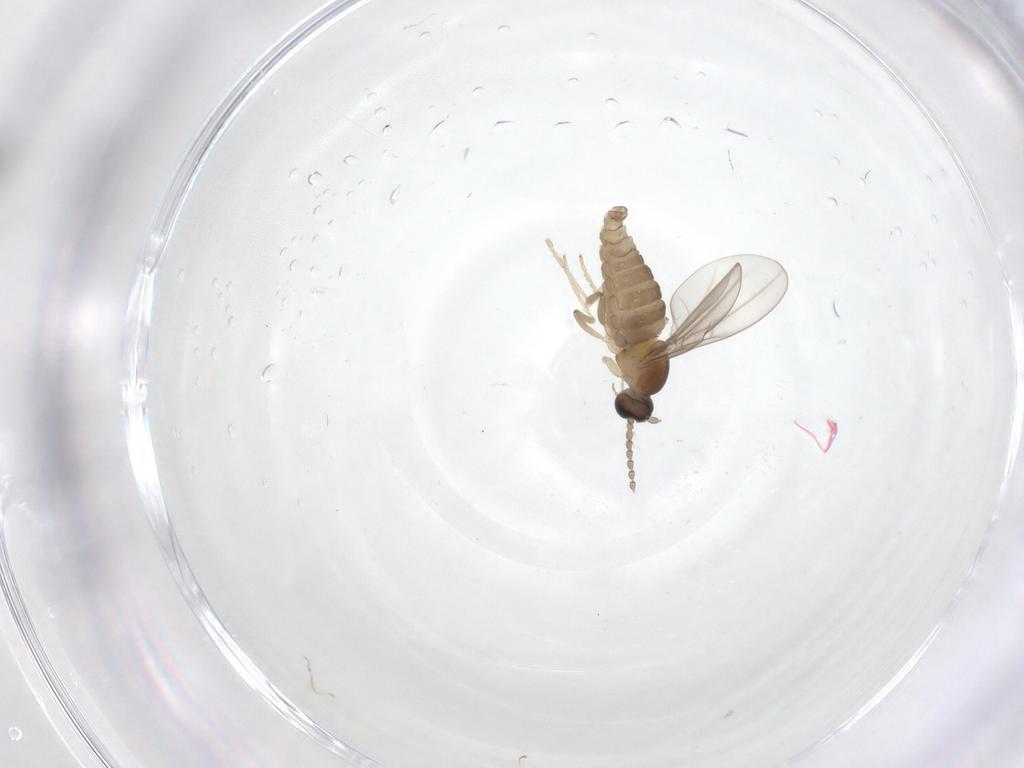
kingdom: Animalia
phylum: Arthropoda
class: Insecta
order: Diptera
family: Cecidomyiidae
